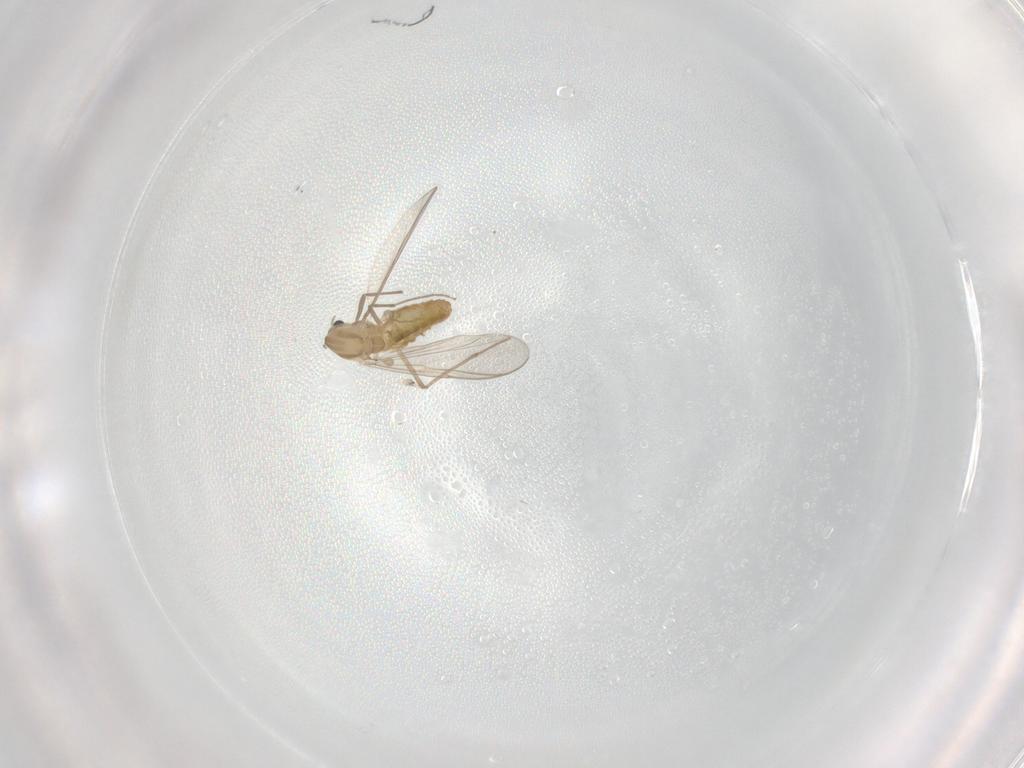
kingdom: Animalia
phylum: Arthropoda
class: Insecta
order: Diptera
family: Chironomidae
